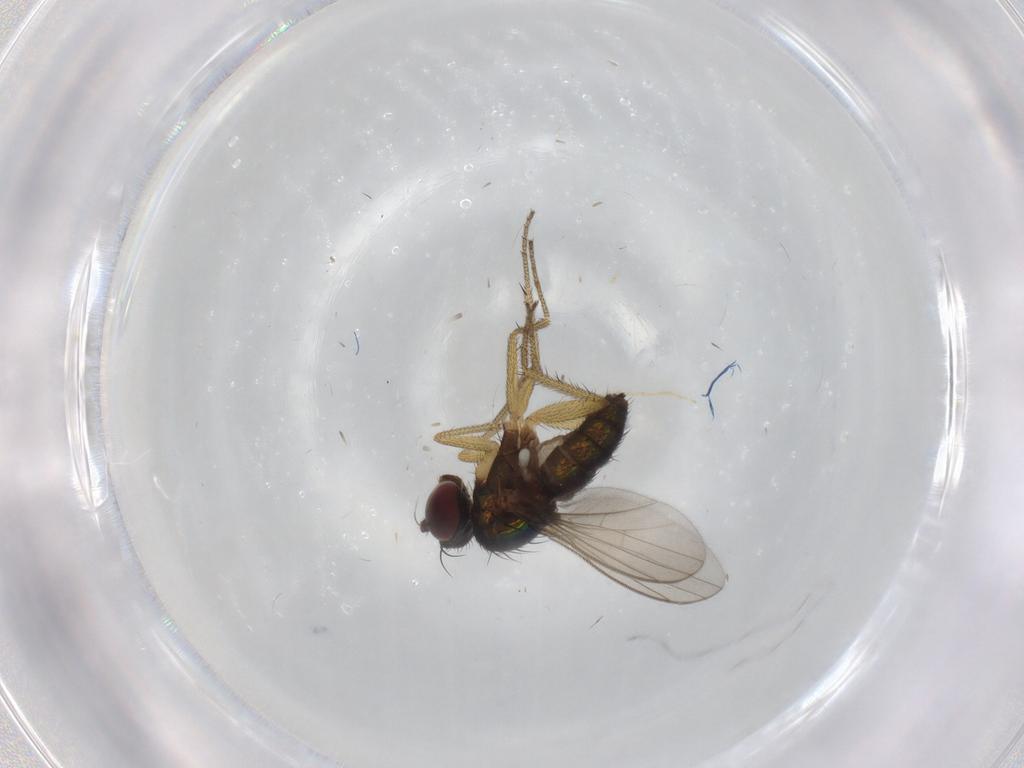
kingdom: Animalia
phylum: Arthropoda
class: Insecta
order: Diptera
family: Dolichopodidae
